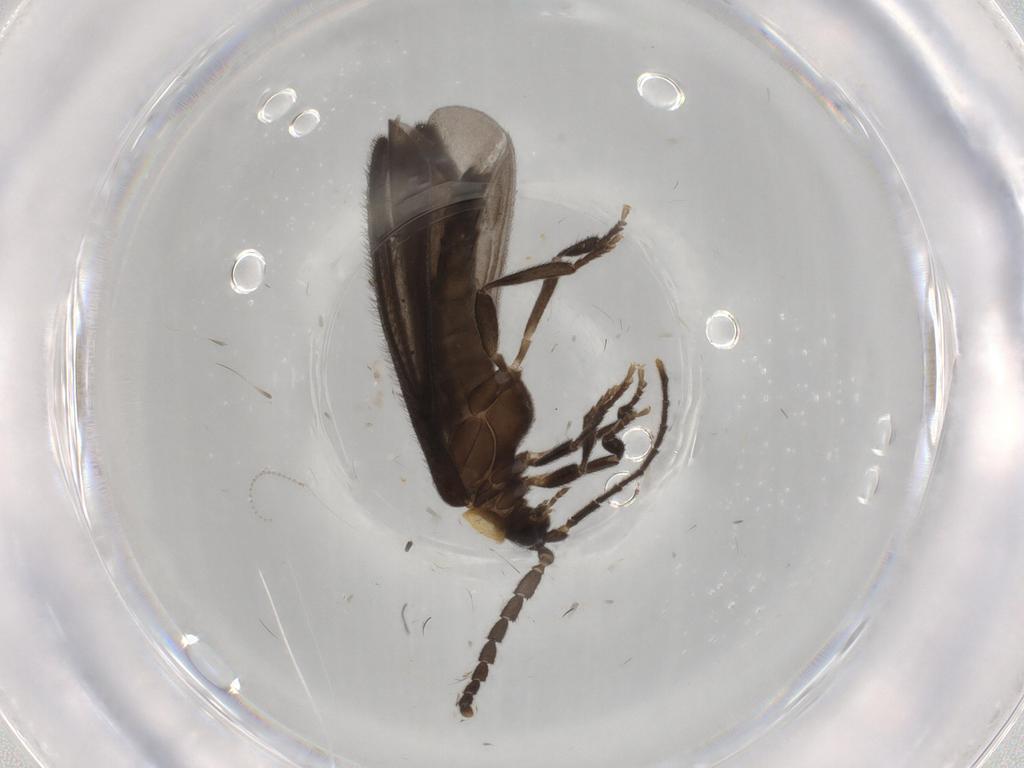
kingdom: Animalia
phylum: Arthropoda
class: Insecta
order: Coleoptera
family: Lycidae
